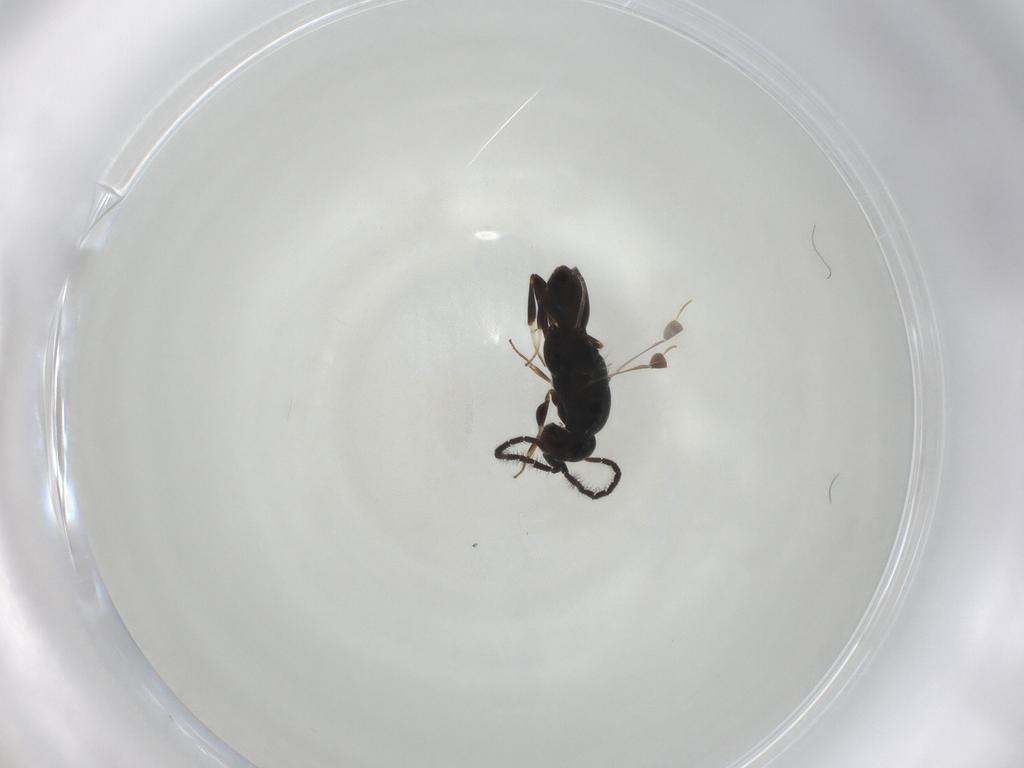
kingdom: Animalia
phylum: Arthropoda
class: Insecta
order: Hymenoptera
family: Megaspilidae
